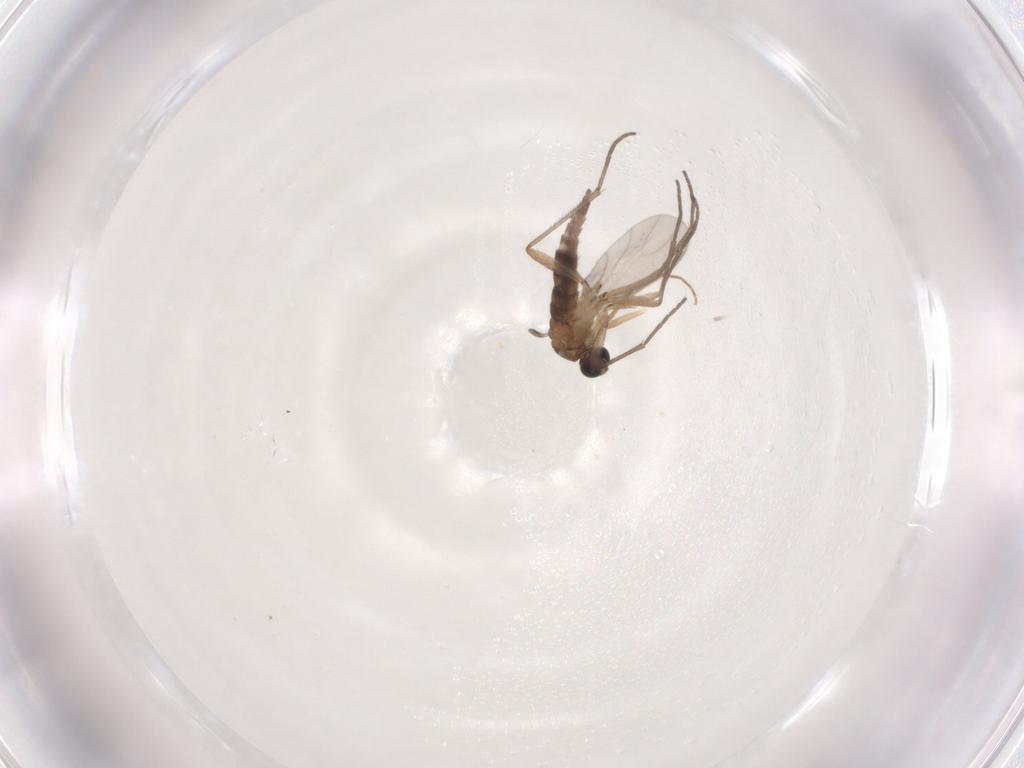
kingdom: Animalia
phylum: Arthropoda
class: Insecta
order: Diptera
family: Sciaridae
